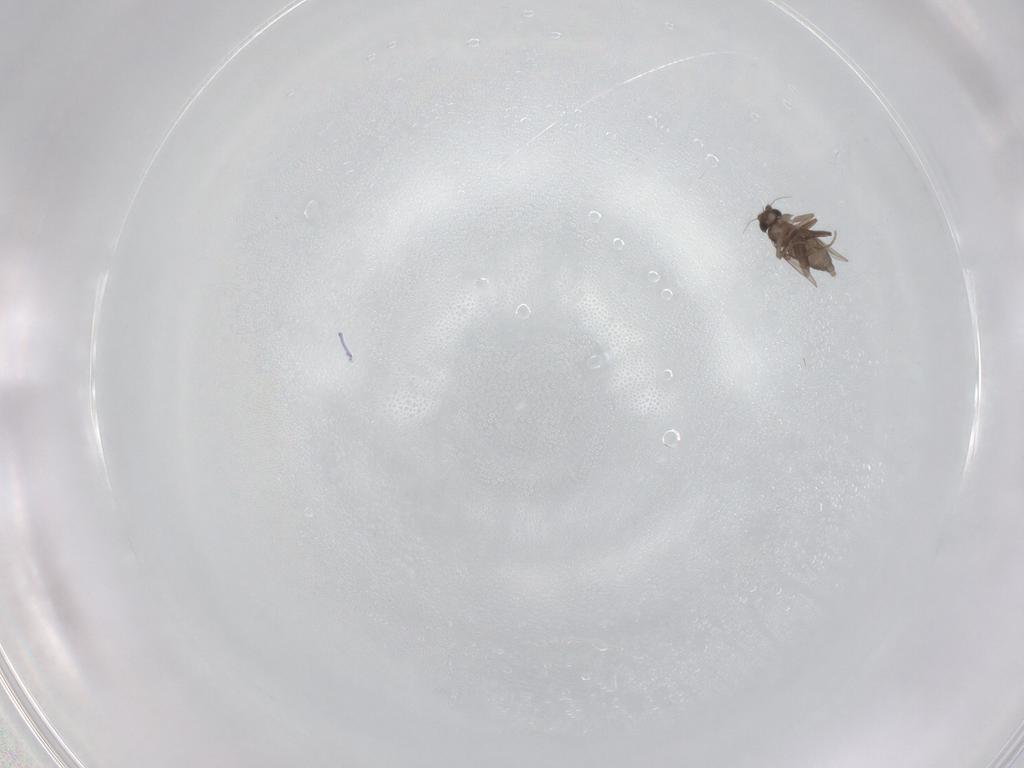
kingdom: Animalia
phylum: Arthropoda
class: Insecta
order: Diptera
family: Phoridae
